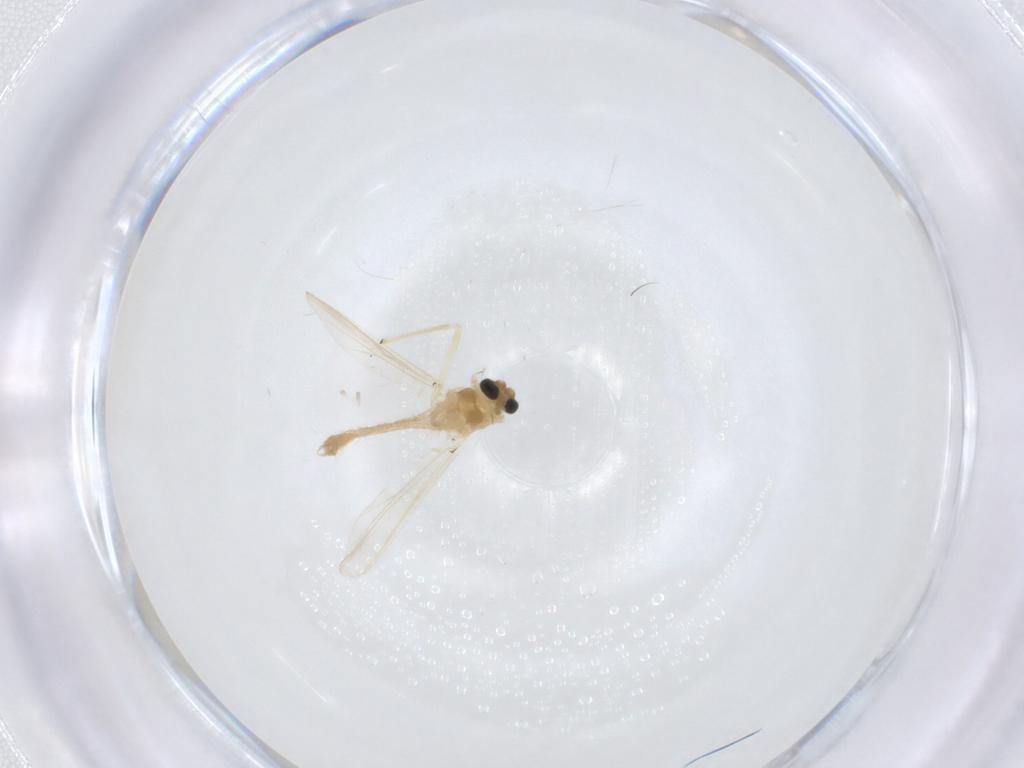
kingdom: Animalia
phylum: Arthropoda
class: Insecta
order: Diptera
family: Chironomidae
